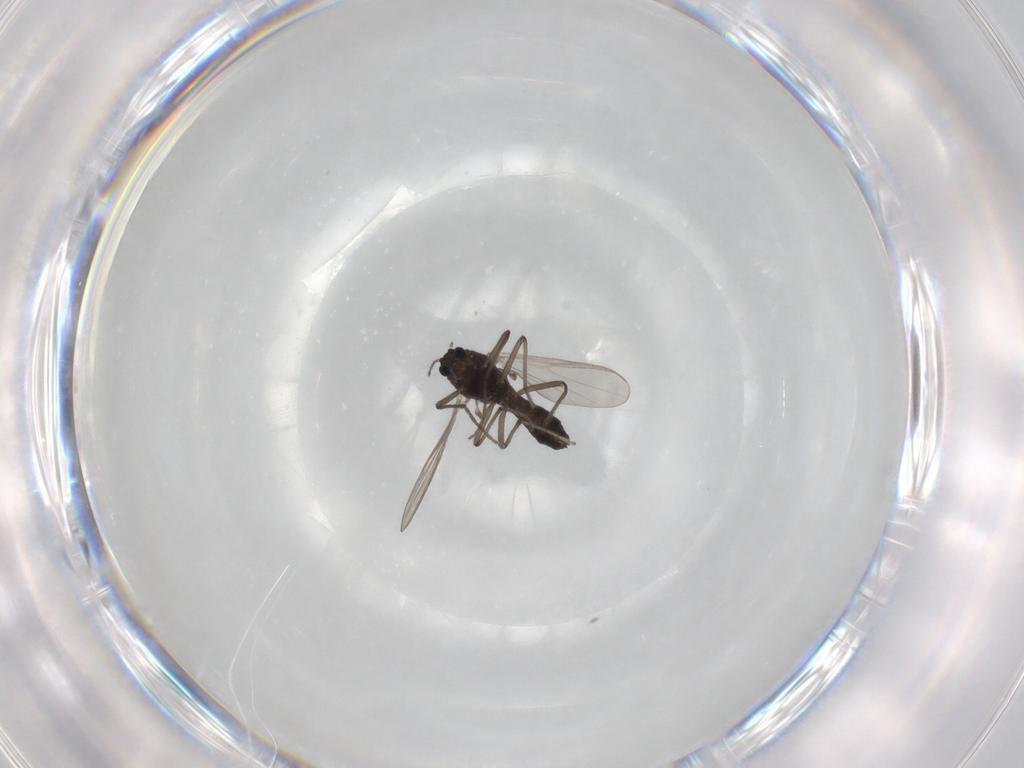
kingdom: Animalia
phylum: Arthropoda
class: Insecta
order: Diptera
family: Chironomidae
